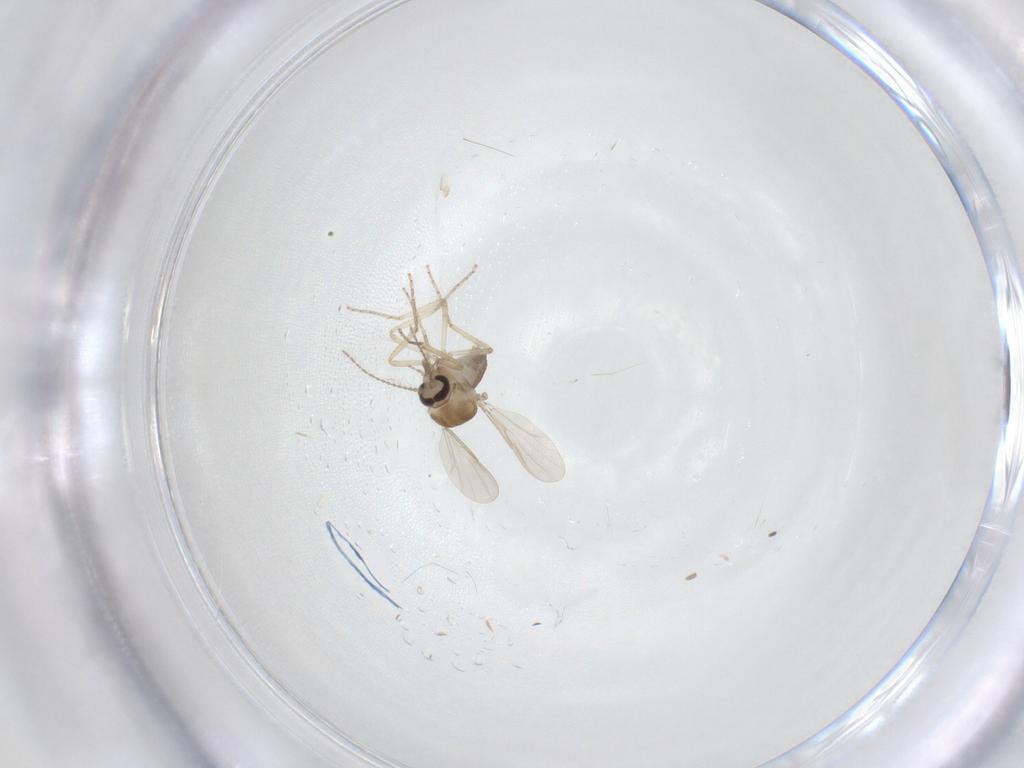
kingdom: Animalia
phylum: Arthropoda
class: Insecta
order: Diptera
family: Ceratopogonidae
